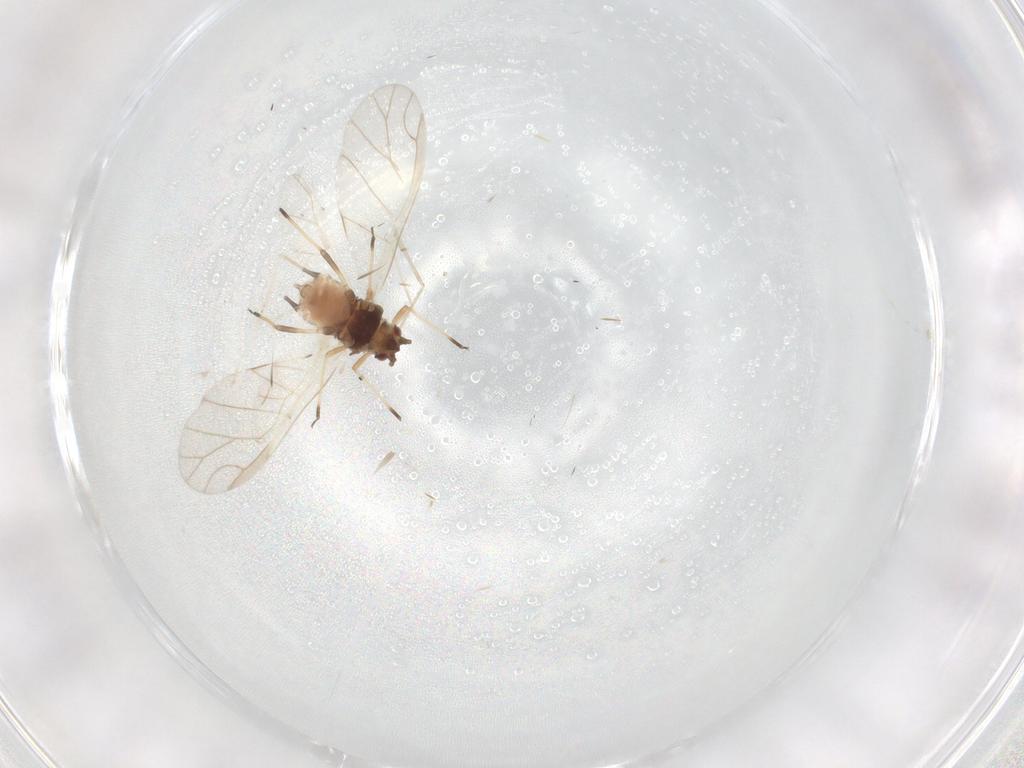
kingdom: Animalia
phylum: Arthropoda
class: Insecta
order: Hemiptera
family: Aphididae
